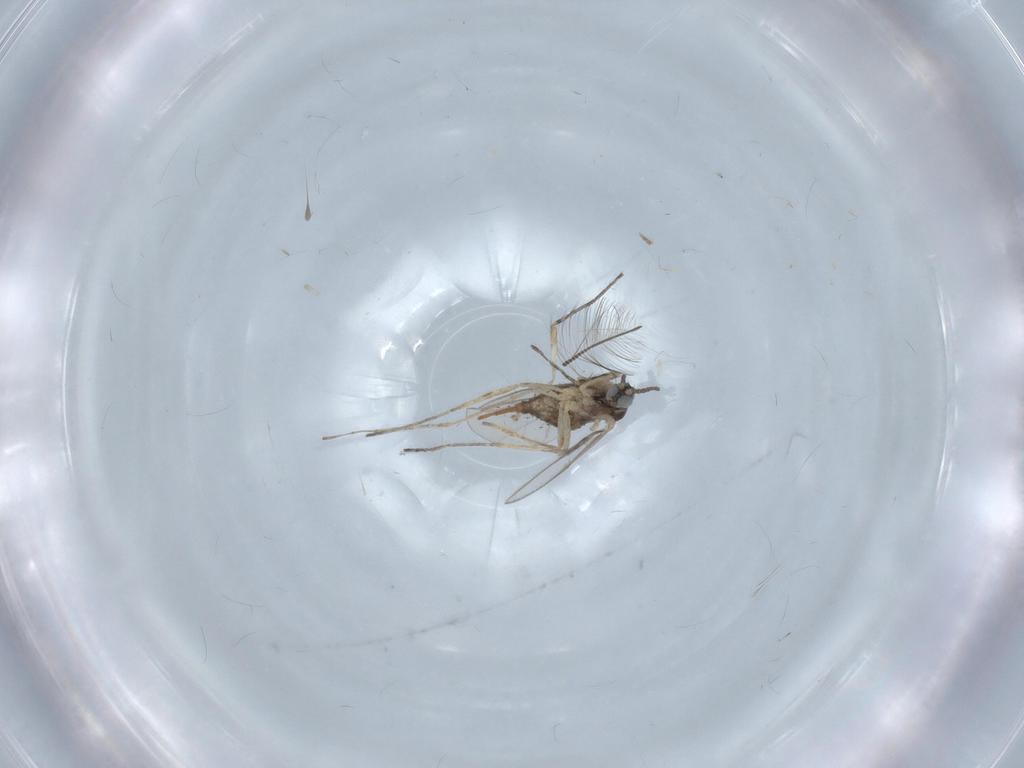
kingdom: Animalia
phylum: Arthropoda
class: Insecta
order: Diptera
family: Cecidomyiidae
